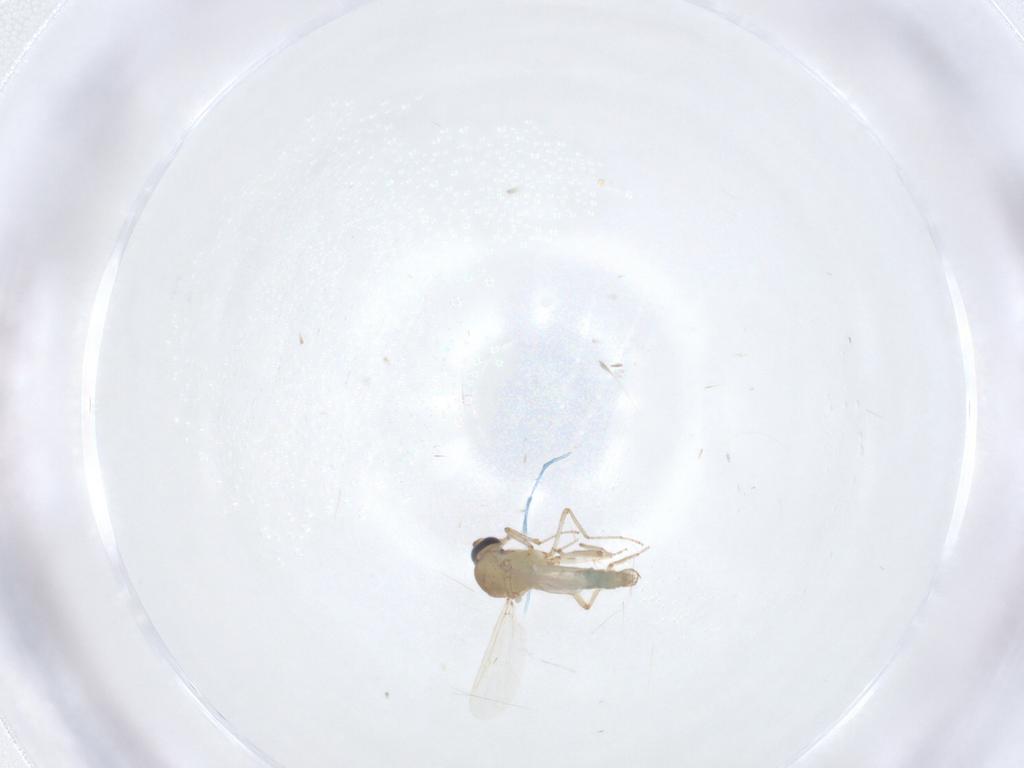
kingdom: Animalia
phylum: Arthropoda
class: Insecta
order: Diptera
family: Ceratopogonidae
